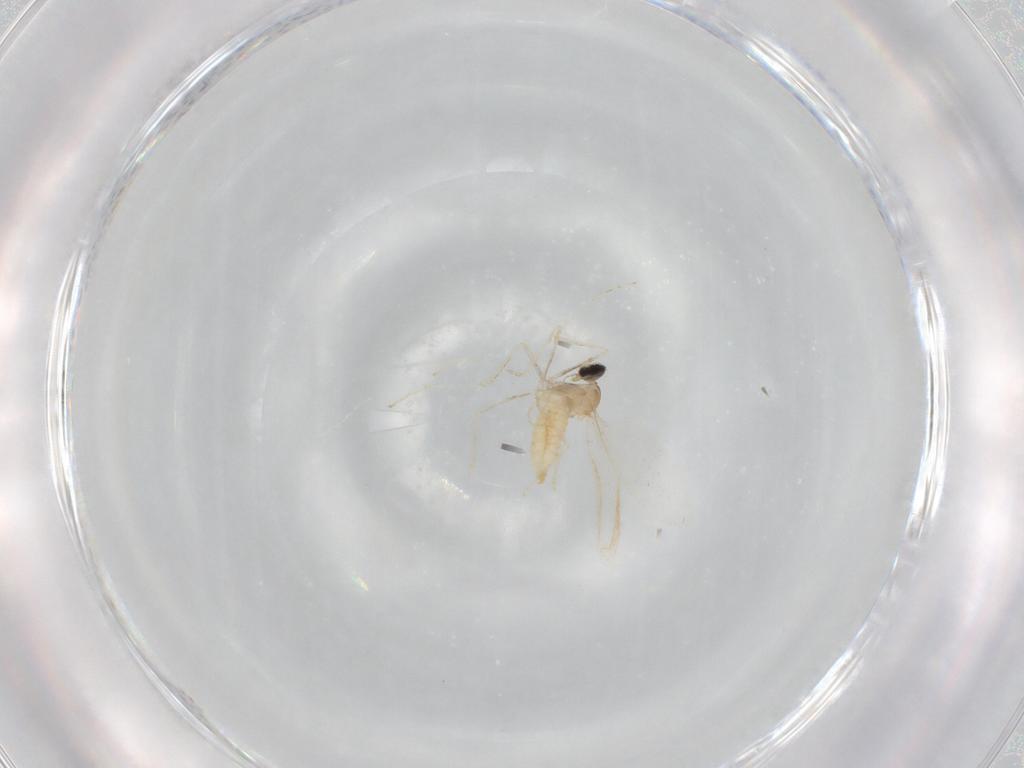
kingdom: Animalia
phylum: Arthropoda
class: Insecta
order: Diptera
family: Cecidomyiidae
